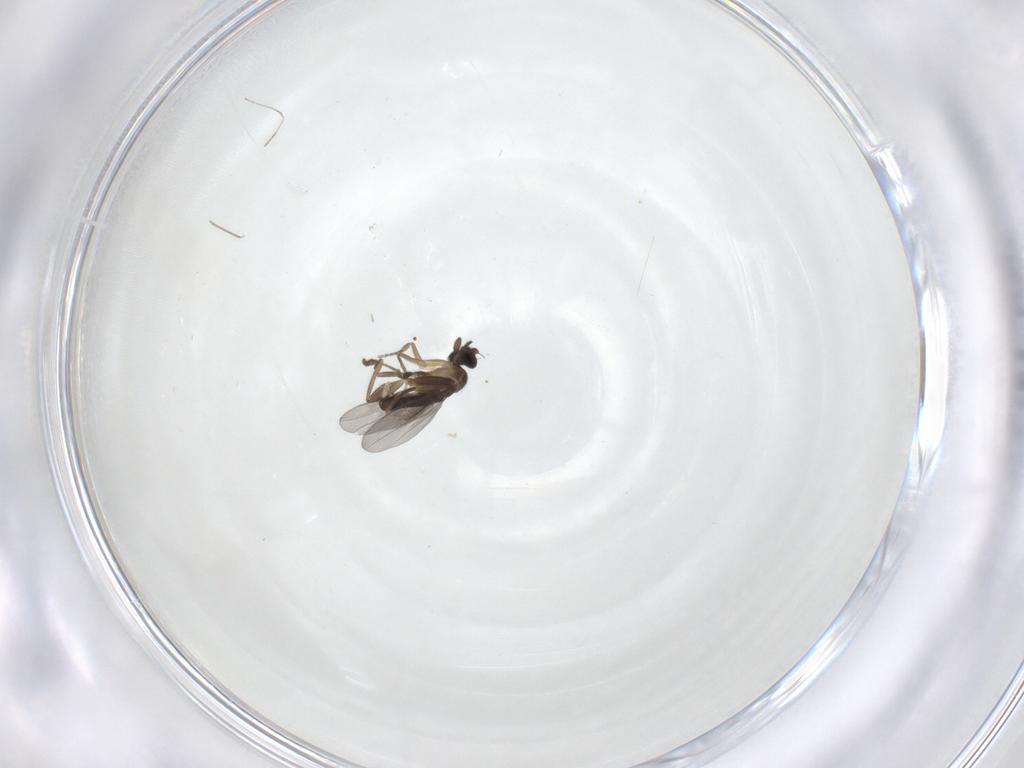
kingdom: Animalia
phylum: Arthropoda
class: Insecta
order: Diptera
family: Cecidomyiidae
